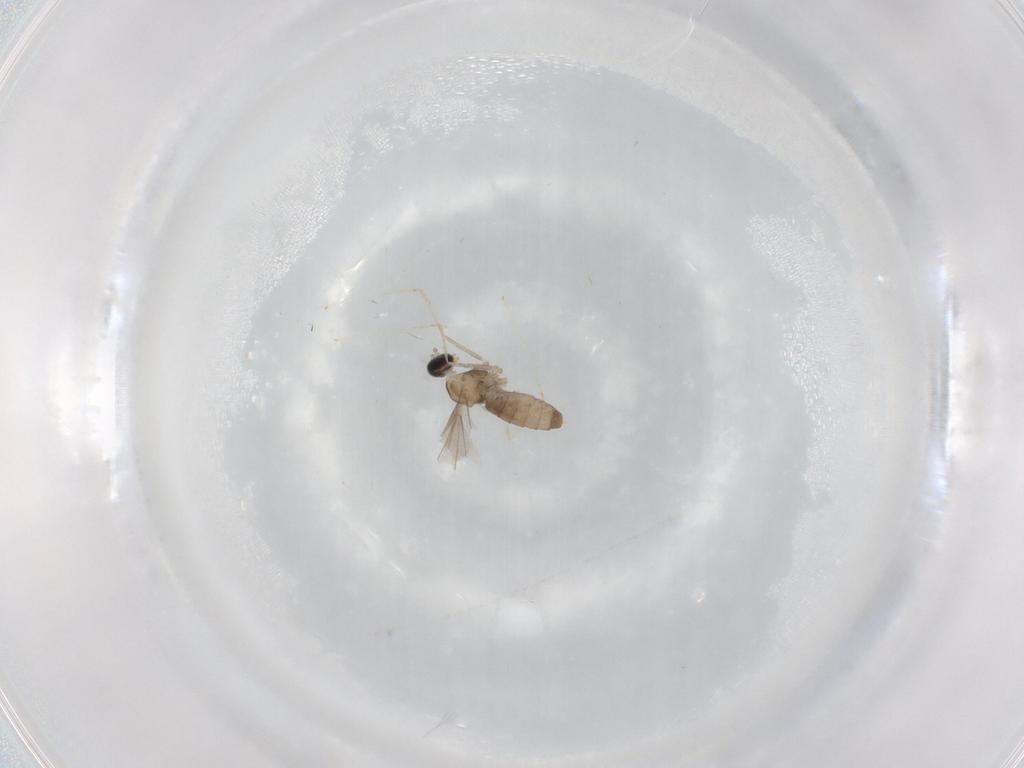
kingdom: Animalia
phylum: Arthropoda
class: Insecta
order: Diptera
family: Cecidomyiidae
